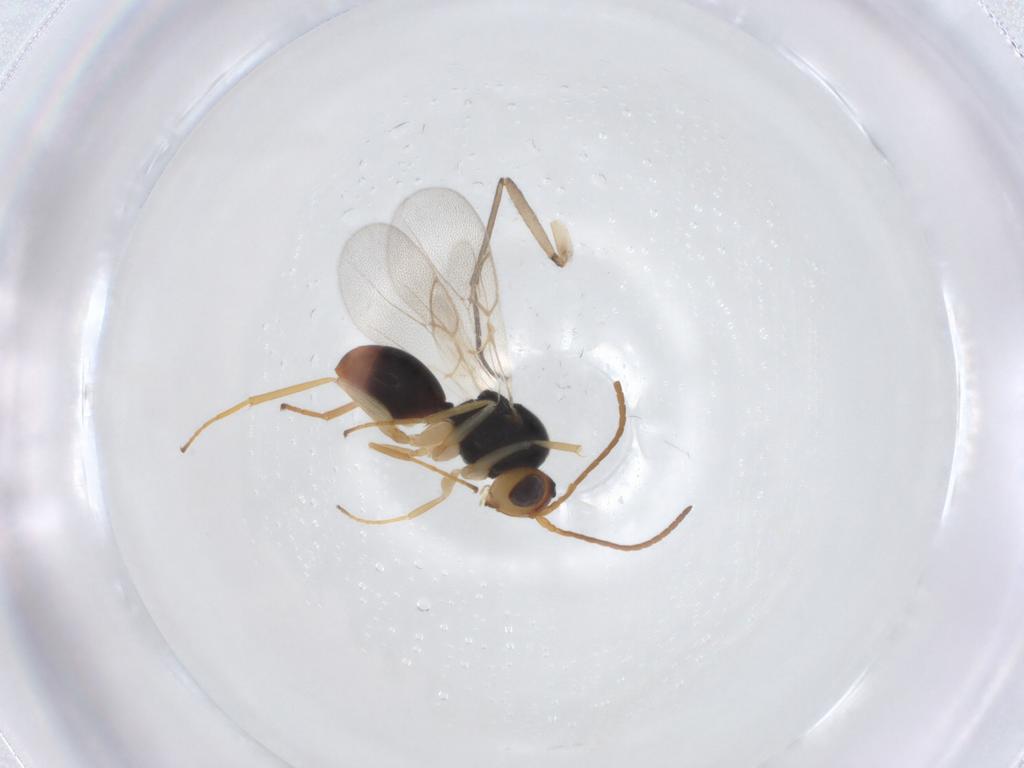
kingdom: Animalia
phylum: Arthropoda
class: Insecta
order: Hymenoptera
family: Cynipidae
